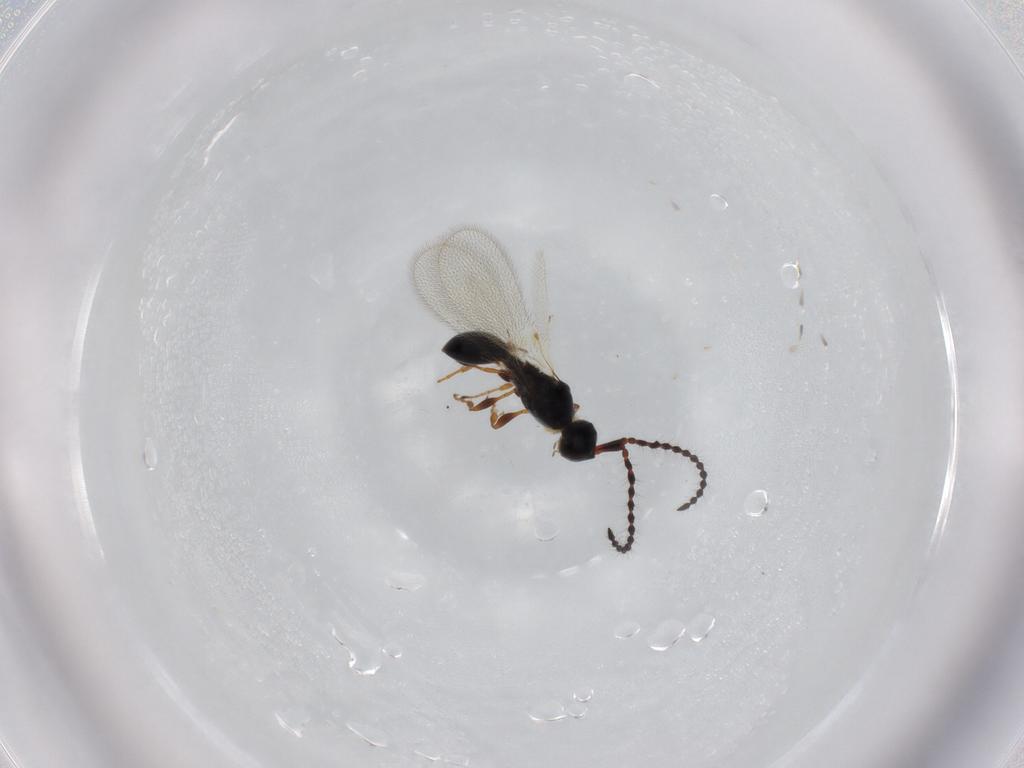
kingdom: Animalia
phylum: Arthropoda
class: Insecta
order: Hymenoptera
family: Diapriidae
